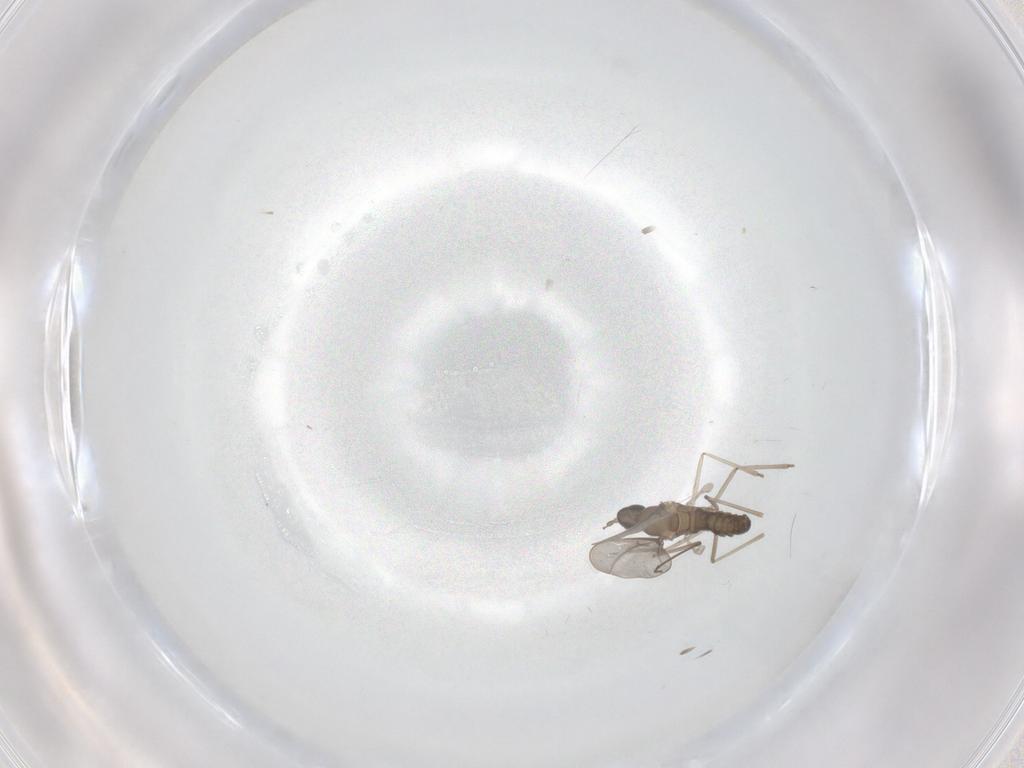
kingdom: Animalia
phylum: Arthropoda
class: Insecta
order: Diptera
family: Cecidomyiidae
